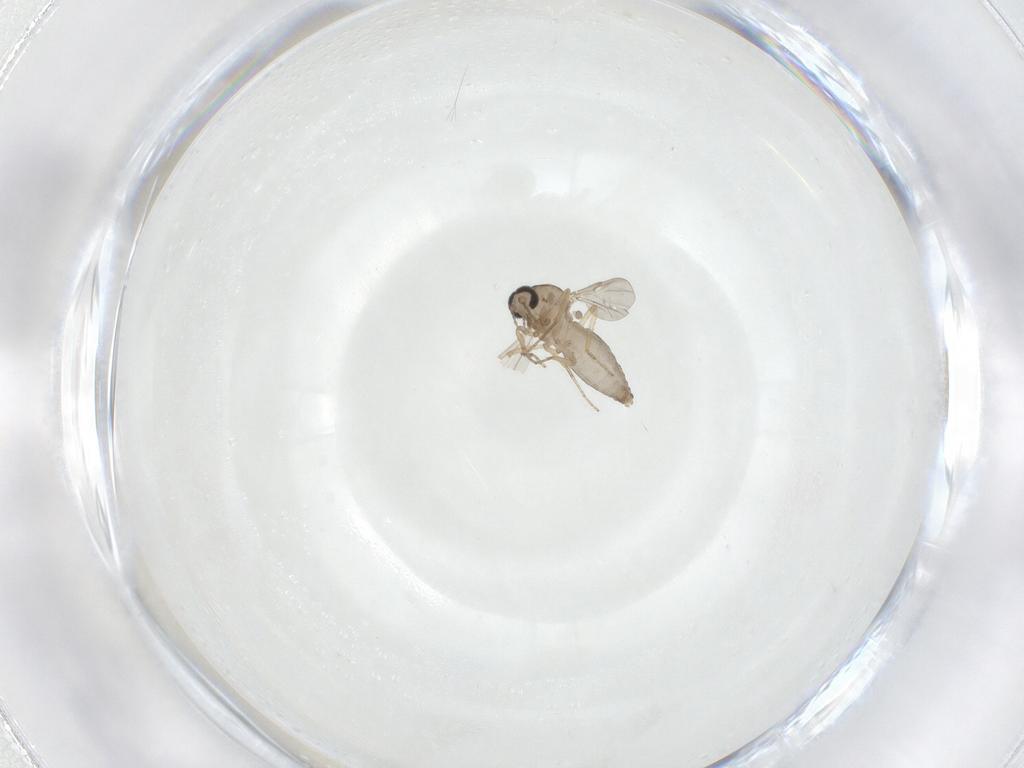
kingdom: Animalia
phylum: Arthropoda
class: Insecta
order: Diptera
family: Ceratopogonidae
